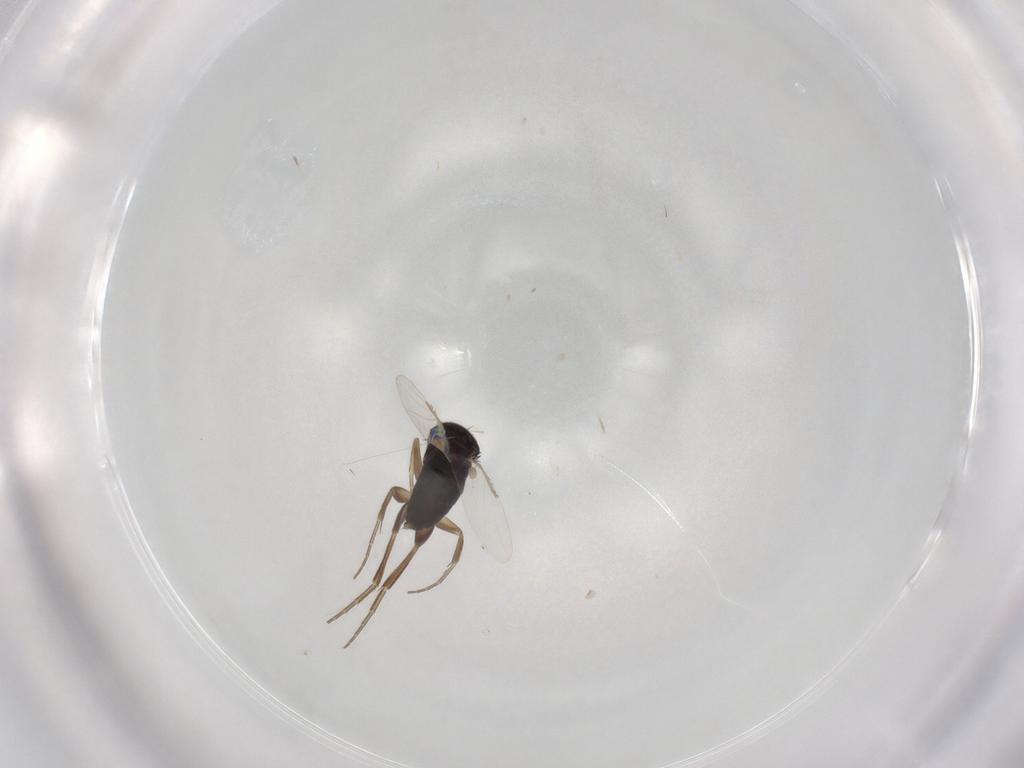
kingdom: Animalia
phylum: Arthropoda
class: Insecta
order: Diptera
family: Phoridae
